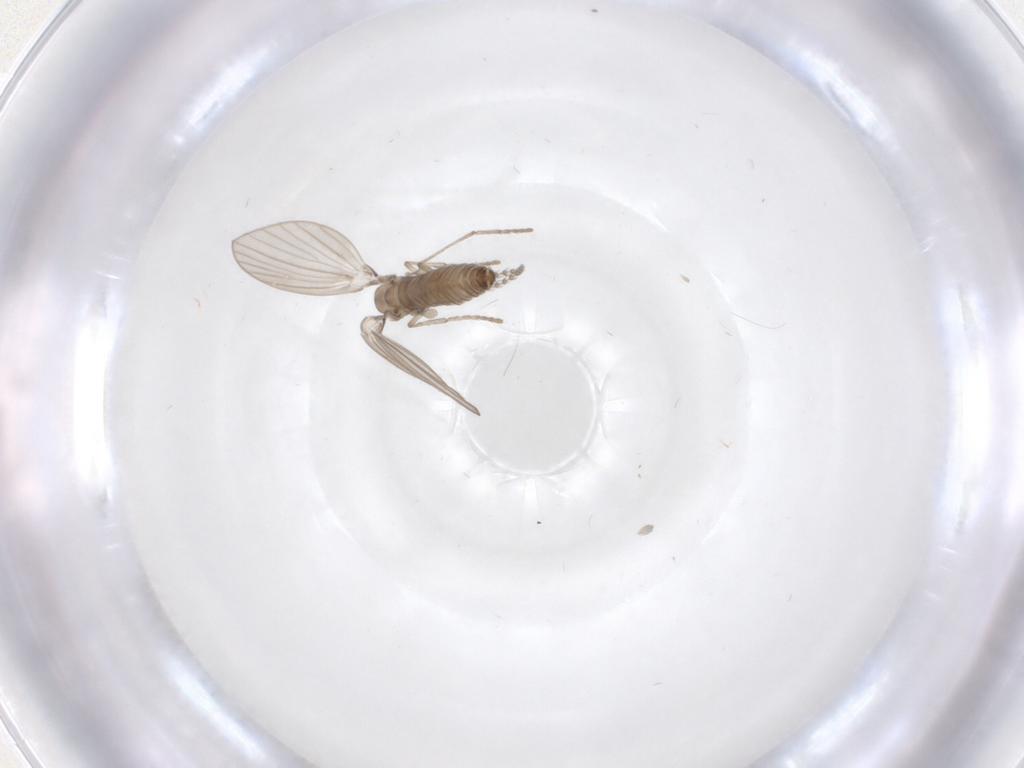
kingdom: Animalia
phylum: Arthropoda
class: Insecta
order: Diptera
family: Psychodidae
